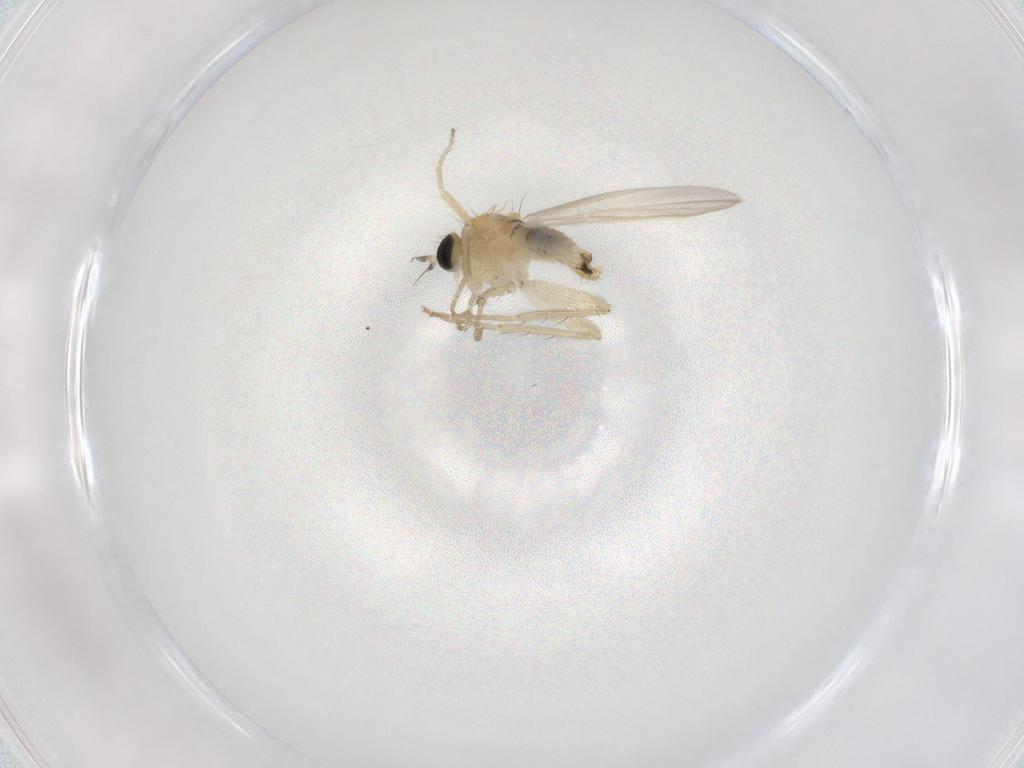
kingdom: Animalia
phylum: Arthropoda
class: Insecta
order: Diptera
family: Hybotidae
